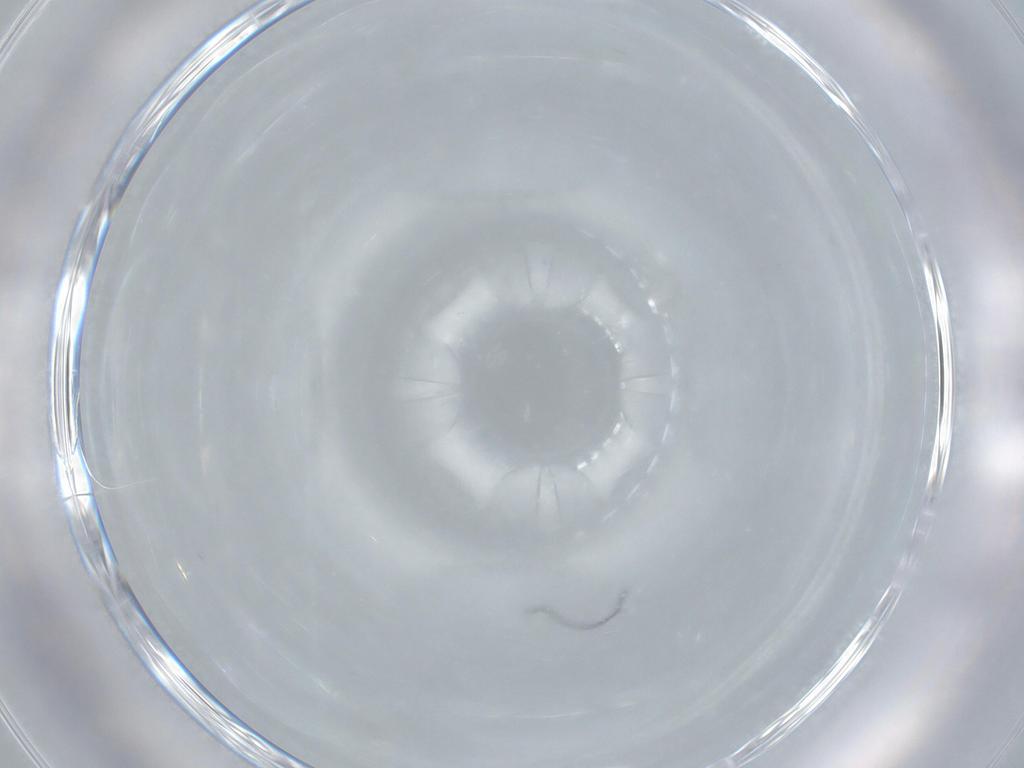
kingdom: Animalia
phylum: Arthropoda
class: Insecta
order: Diptera
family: Sciaridae
